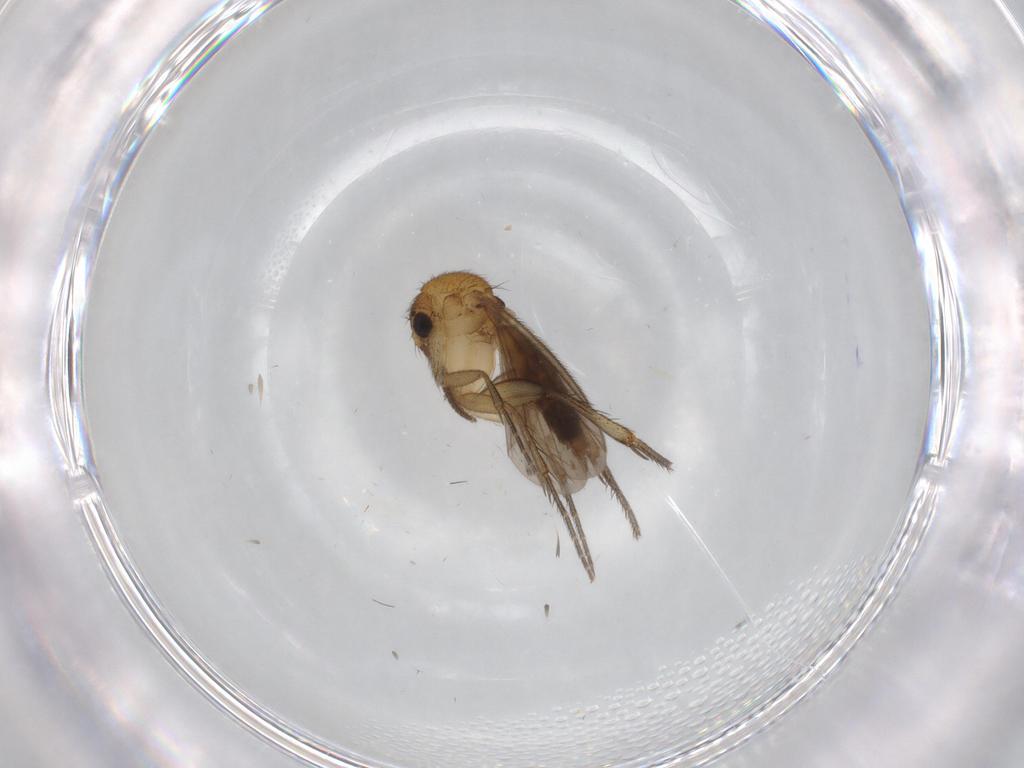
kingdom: Animalia
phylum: Arthropoda
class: Insecta
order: Diptera
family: Mycetophilidae
